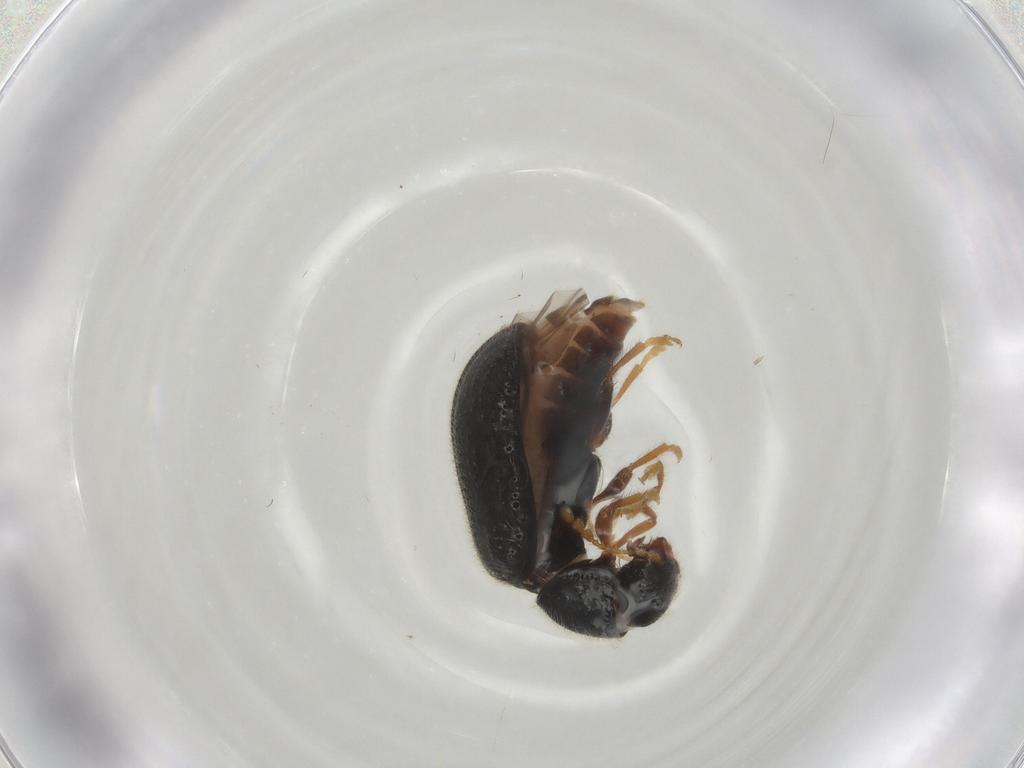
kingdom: Animalia
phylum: Arthropoda
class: Insecta
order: Coleoptera
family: Cleridae
